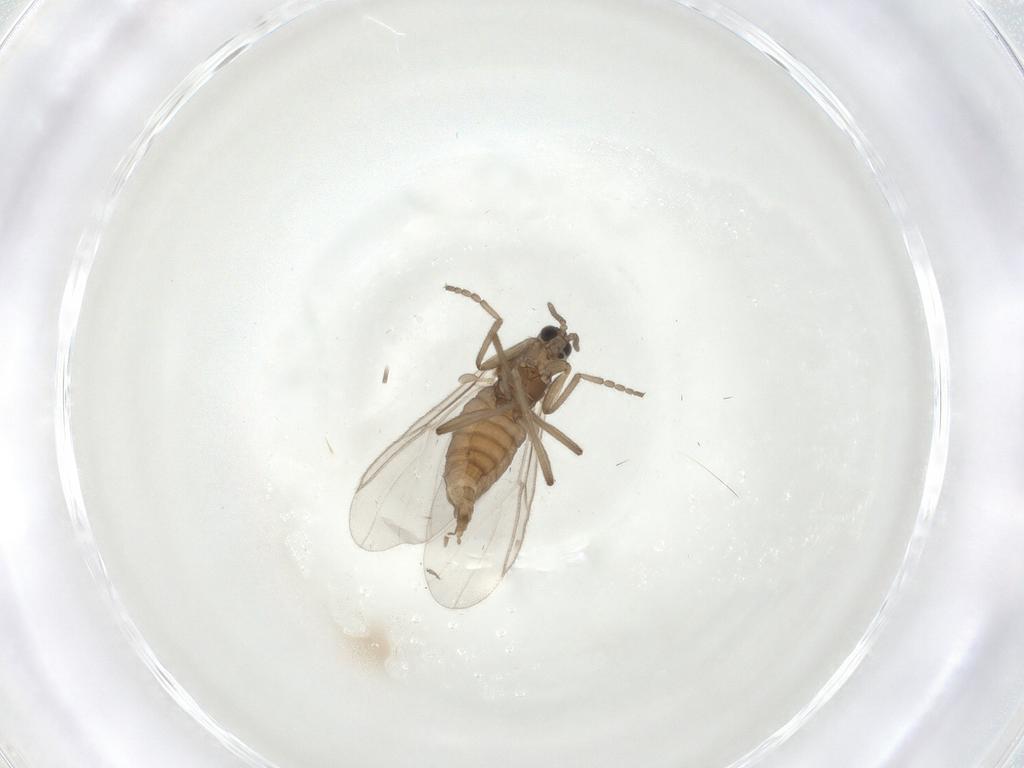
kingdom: Animalia
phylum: Arthropoda
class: Insecta
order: Diptera
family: Cecidomyiidae
